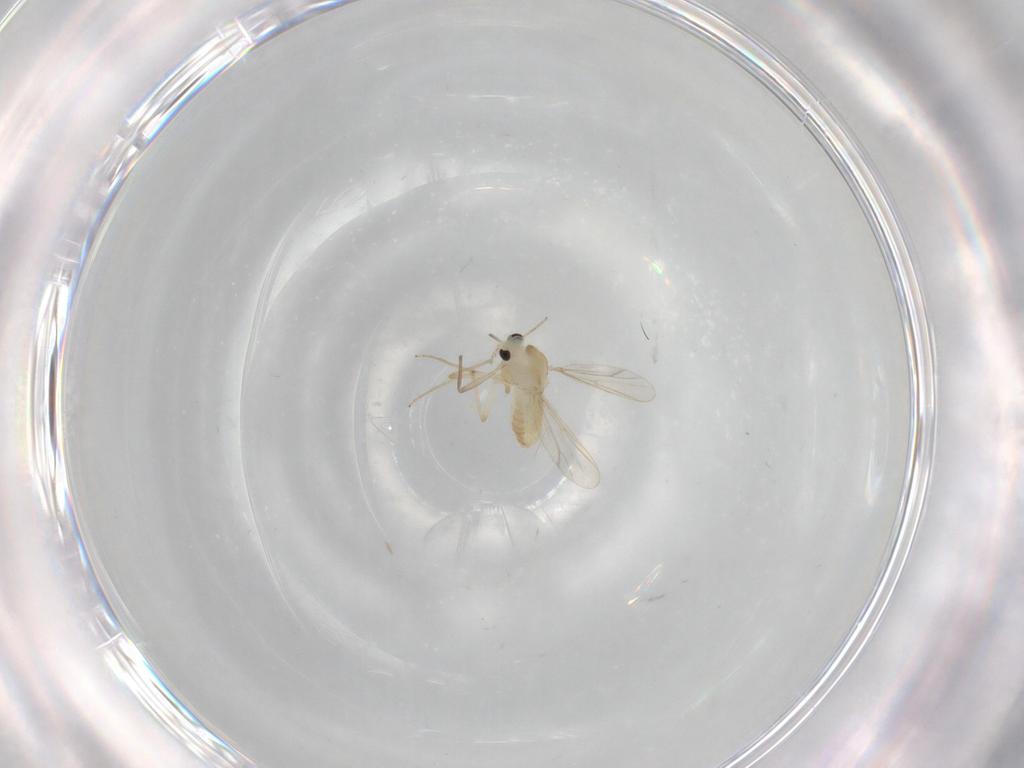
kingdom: Animalia
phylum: Arthropoda
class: Insecta
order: Diptera
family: Chironomidae
